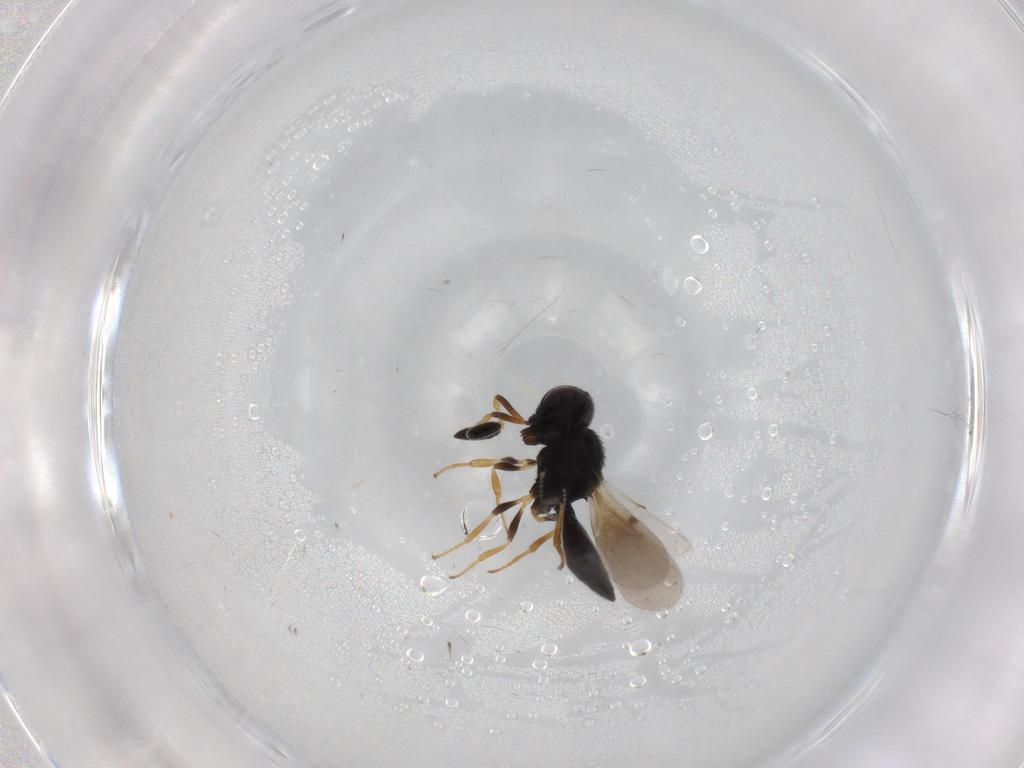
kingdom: Animalia
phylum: Arthropoda
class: Insecta
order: Hymenoptera
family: Scelionidae
